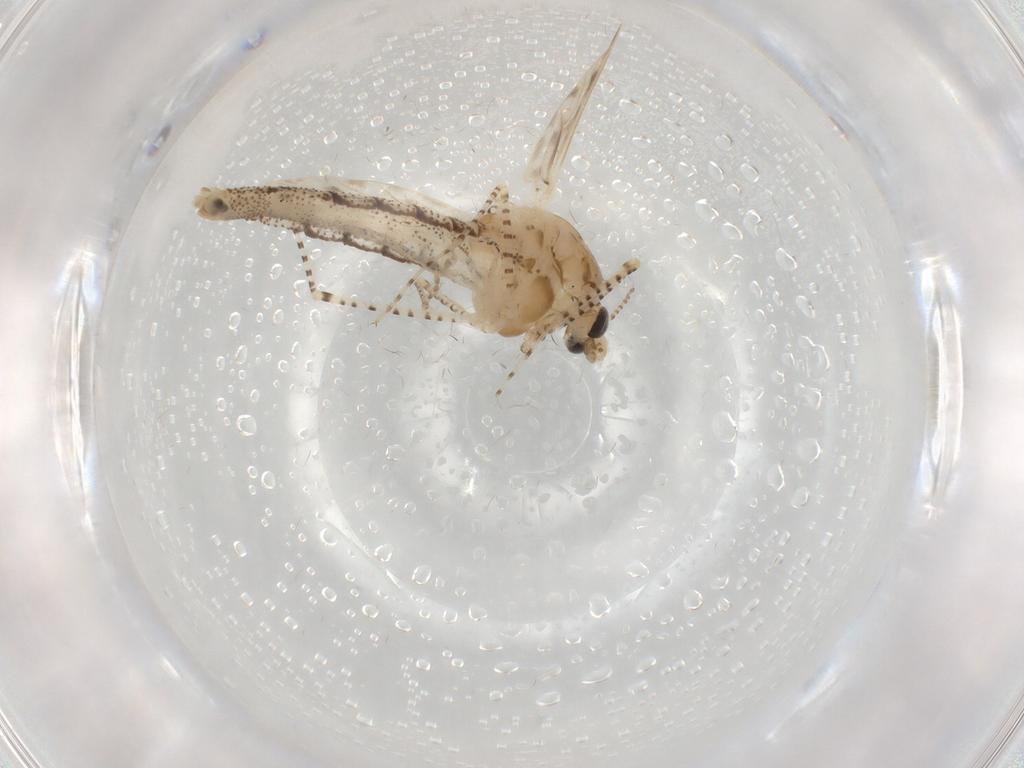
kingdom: Animalia
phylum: Arthropoda
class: Insecta
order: Diptera
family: Chaoboridae
